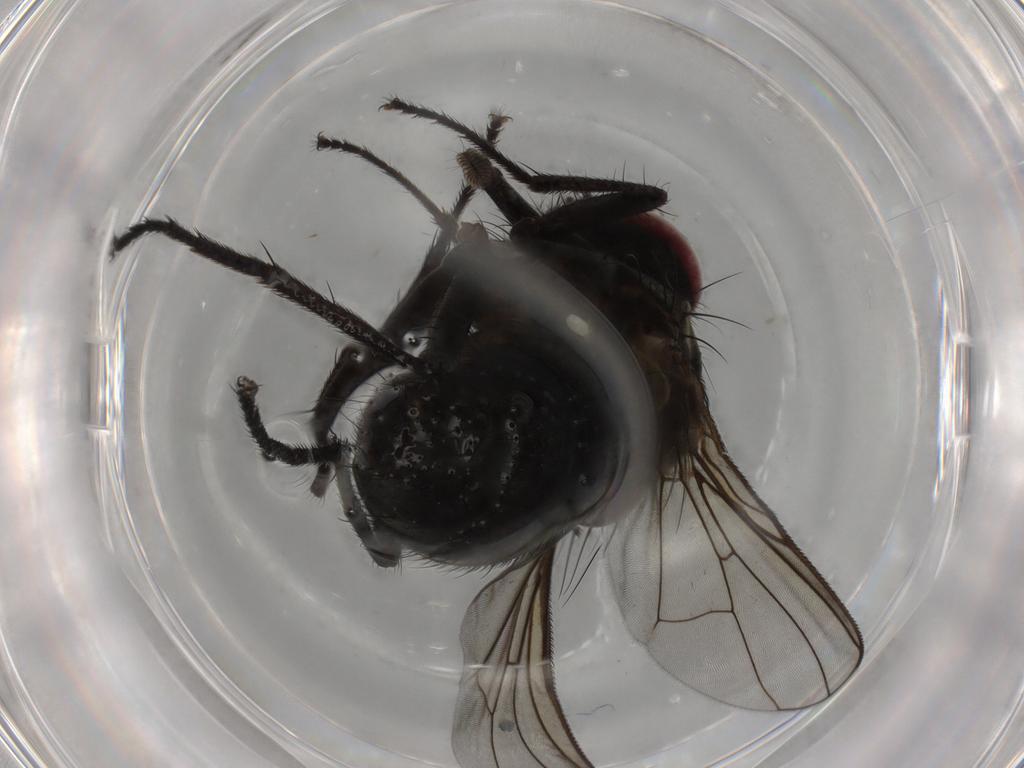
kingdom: Animalia
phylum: Arthropoda
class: Insecta
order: Diptera
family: Muscidae
